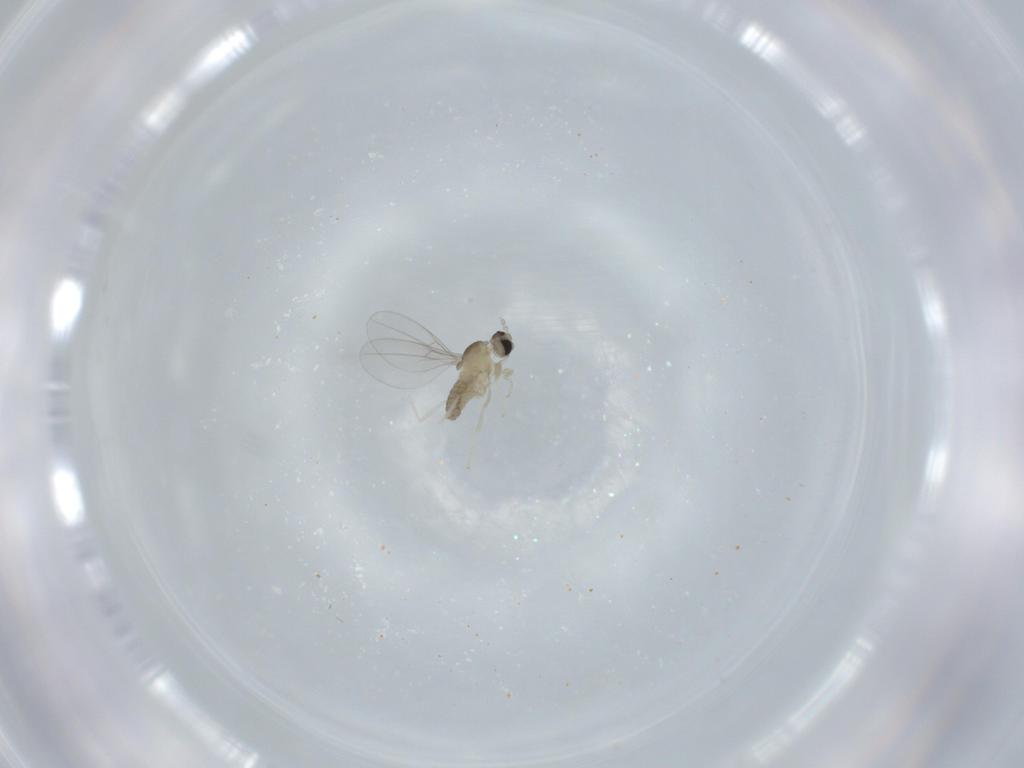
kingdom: Animalia
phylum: Arthropoda
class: Insecta
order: Diptera
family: Cecidomyiidae
